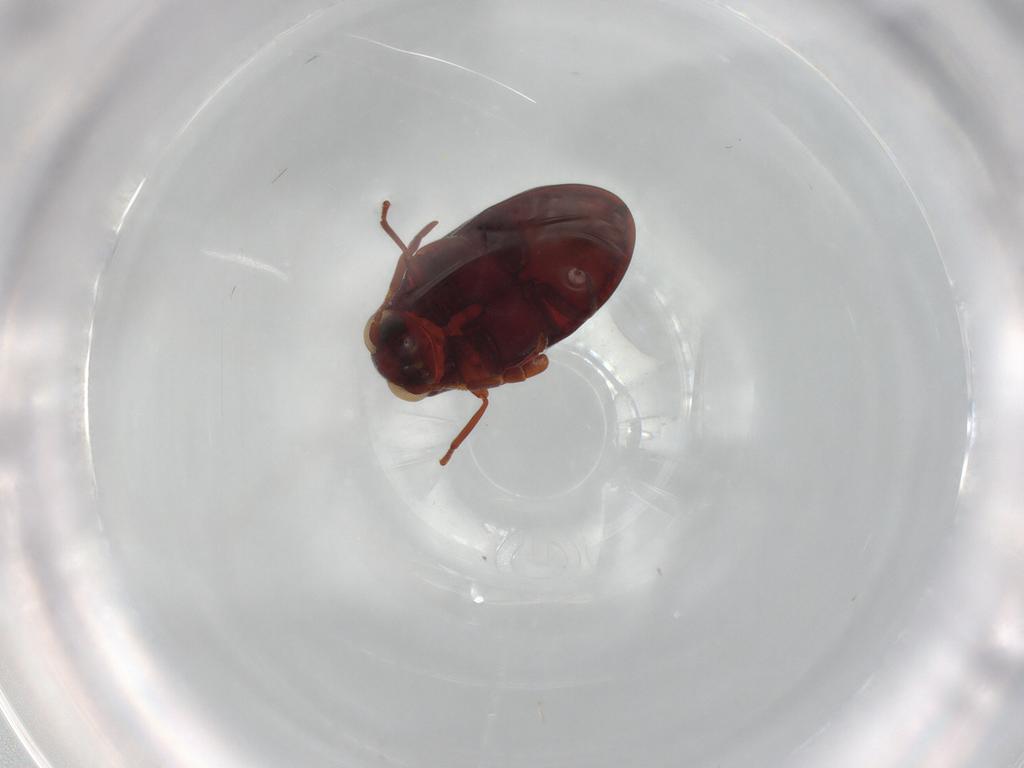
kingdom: Animalia
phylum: Arthropoda
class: Insecta
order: Coleoptera
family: Ptinidae
